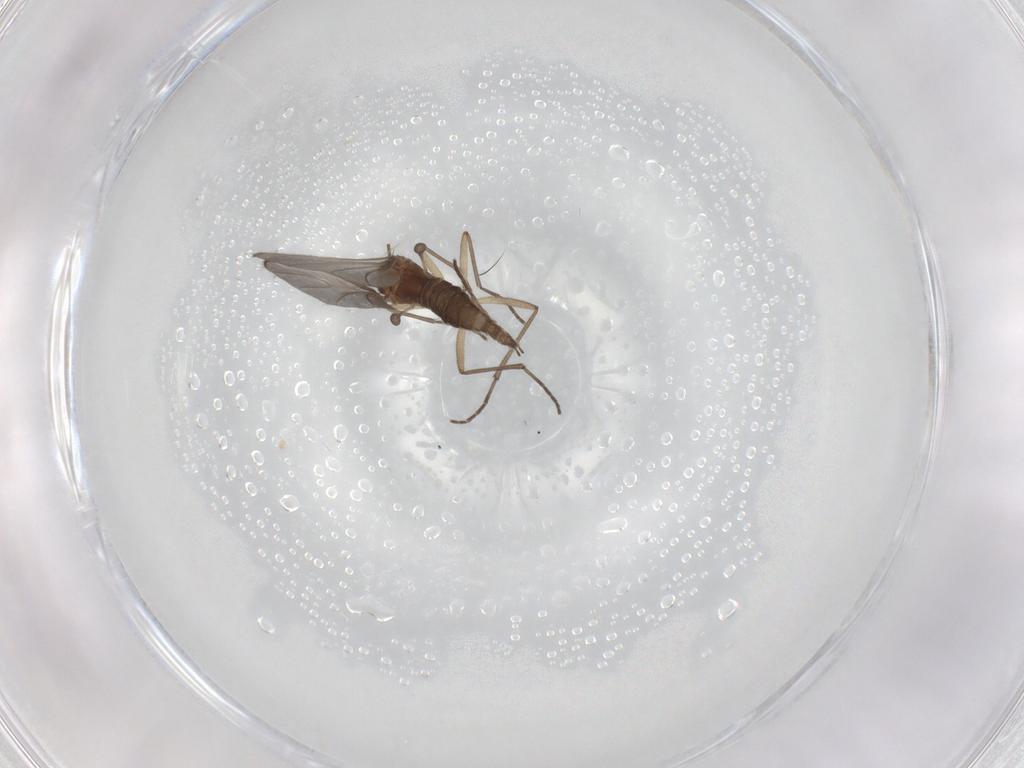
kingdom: Animalia
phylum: Arthropoda
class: Insecta
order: Diptera
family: Sciaridae
